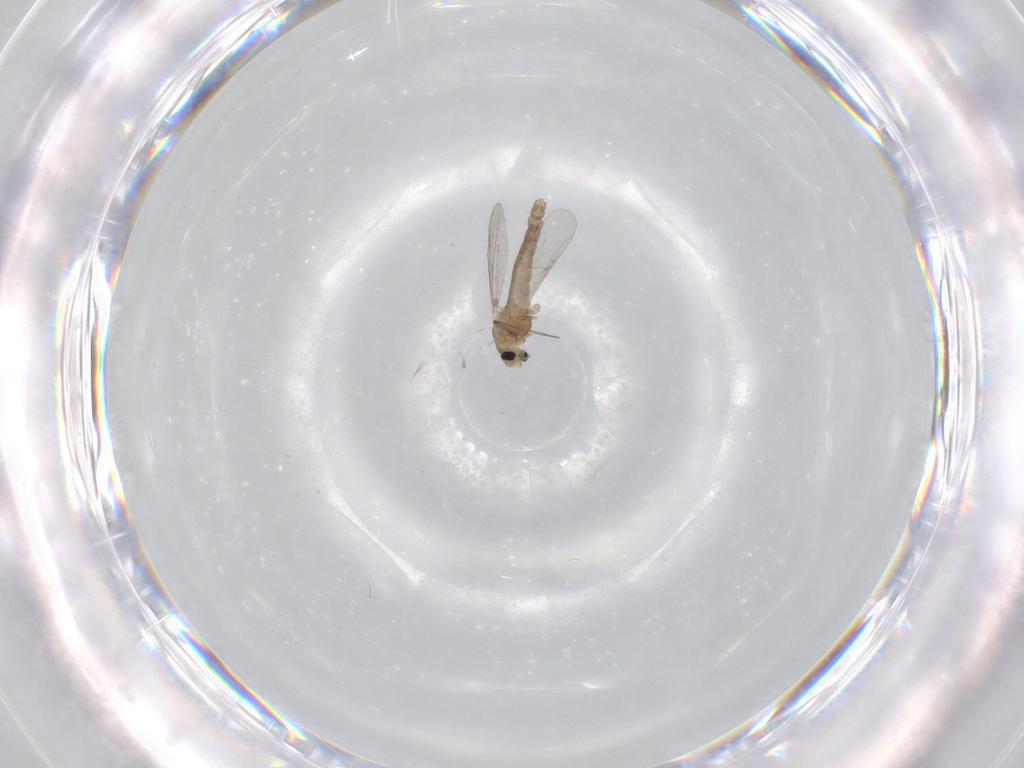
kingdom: Animalia
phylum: Arthropoda
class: Insecta
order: Diptera
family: Chironomidae
